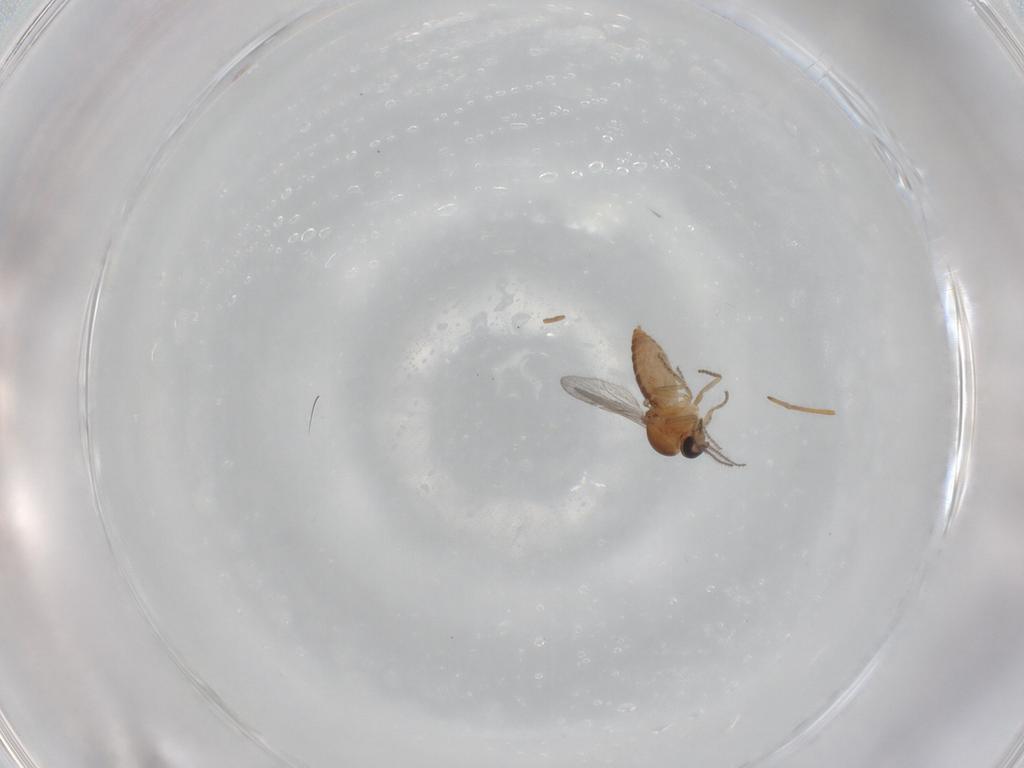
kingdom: Animalia
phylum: Arthropoda
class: Insecta
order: Diptera
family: Ceratopogonidae
